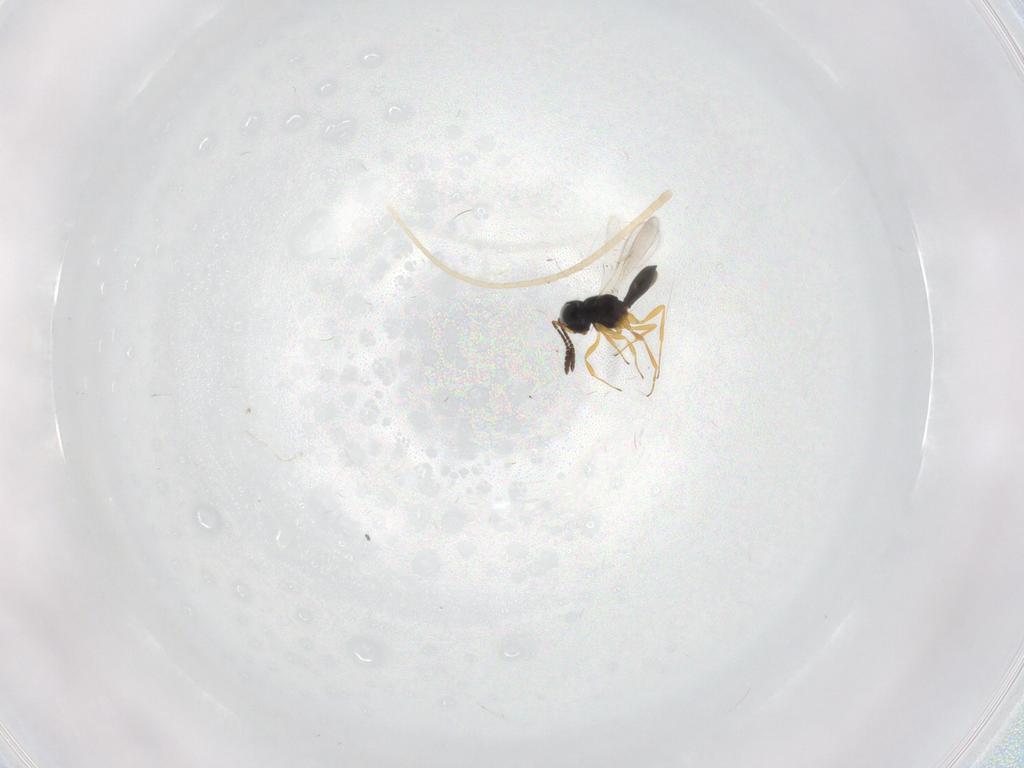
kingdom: Animalia
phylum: Arthropoda
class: Insecta
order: Hymenoptera
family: Scelionidae
